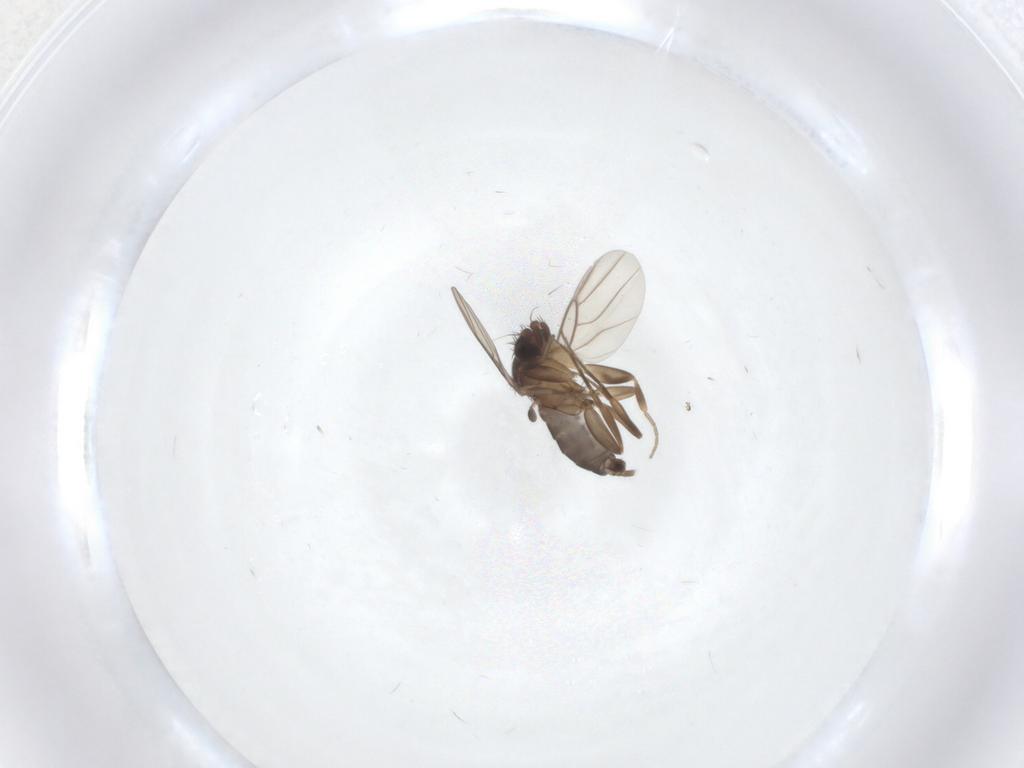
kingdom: Animalia
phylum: Arthropoda
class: Insecta
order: Diptera
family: Phoridae
